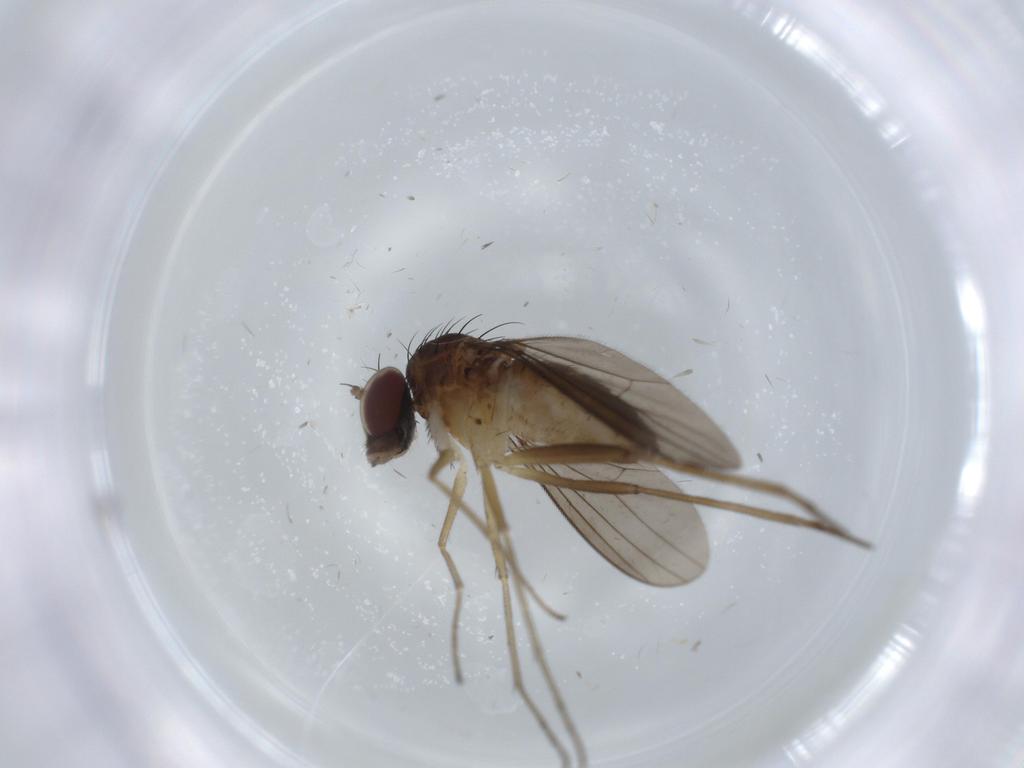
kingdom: Animalia
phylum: Arthropoda
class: Insecta
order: Diptera
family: Dolichopodidae
